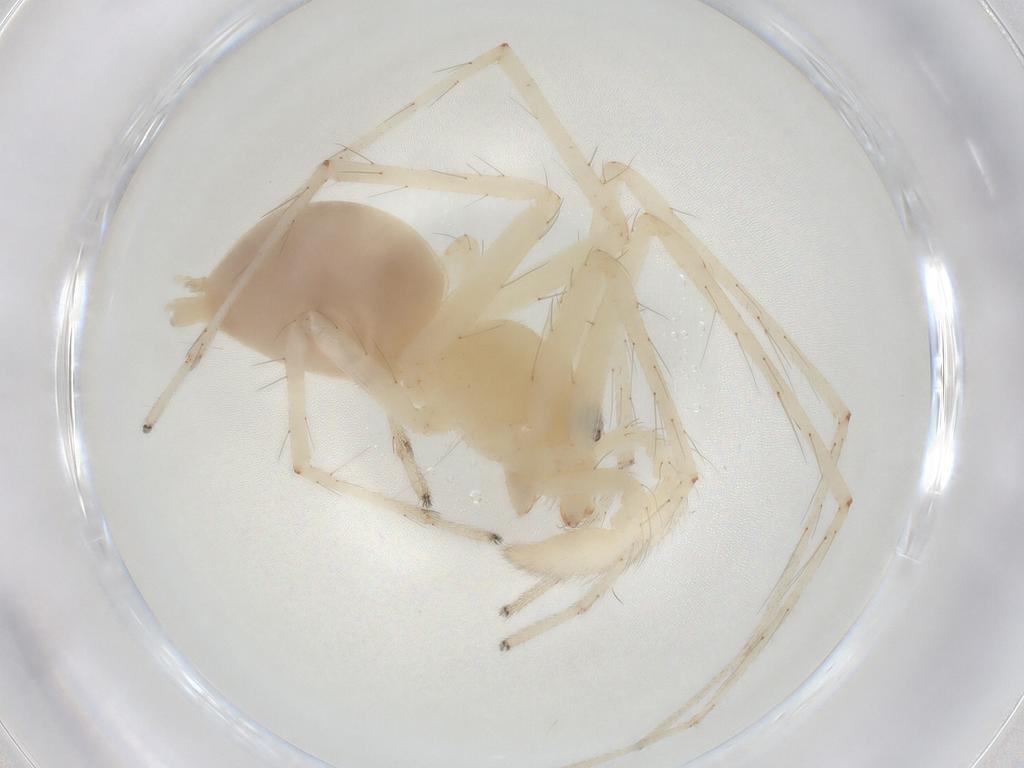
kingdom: Animalia
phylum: Arthropoda
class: Arachnida
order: Araneae
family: Anyphaenidae
